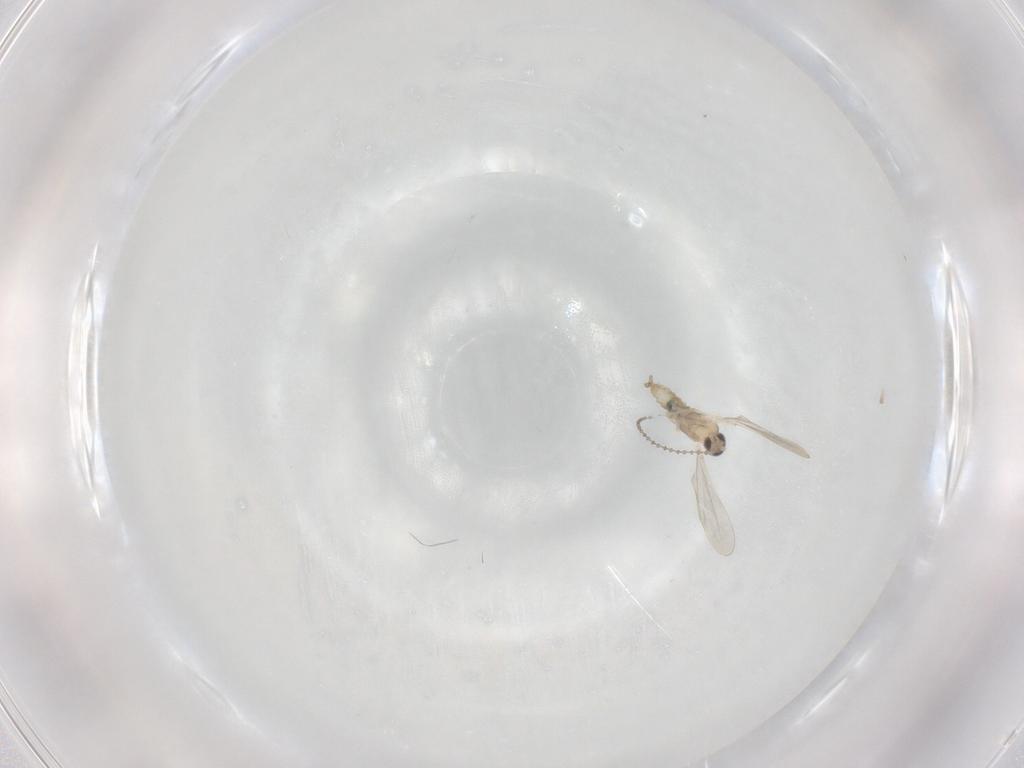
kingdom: Animalia
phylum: Arthropoda
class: Insecta
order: Diptera
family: Cecidomyiidae
